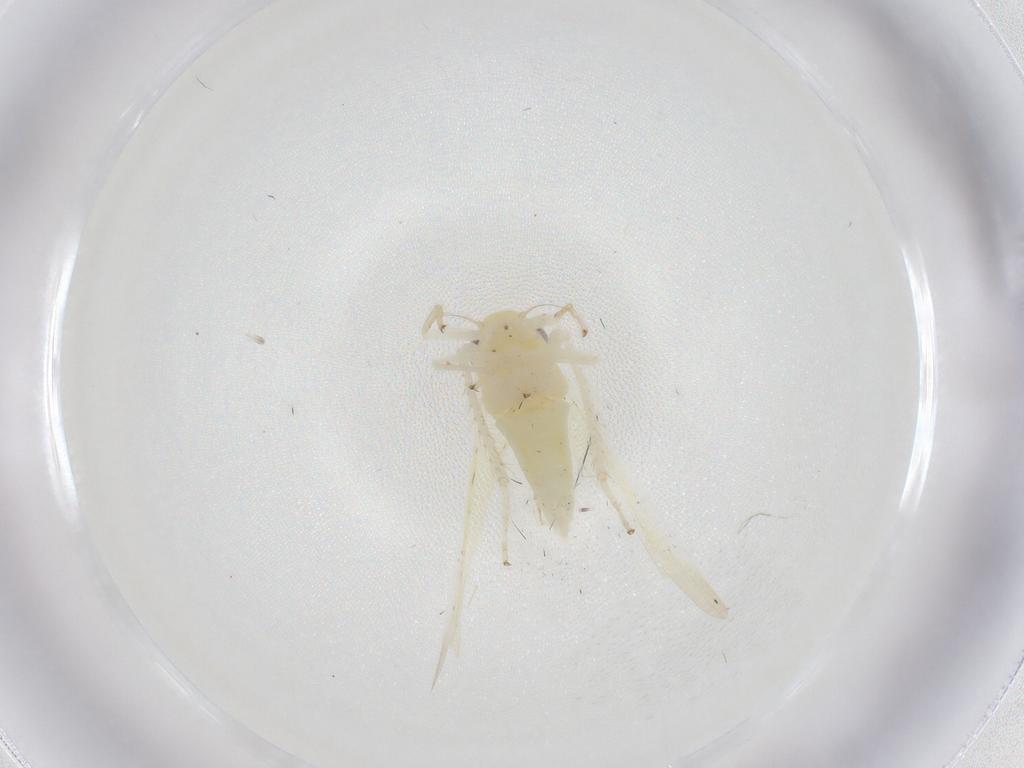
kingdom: Animalia
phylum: Arthropoda
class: Insecta
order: Hemiptera
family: Cicadellidae
